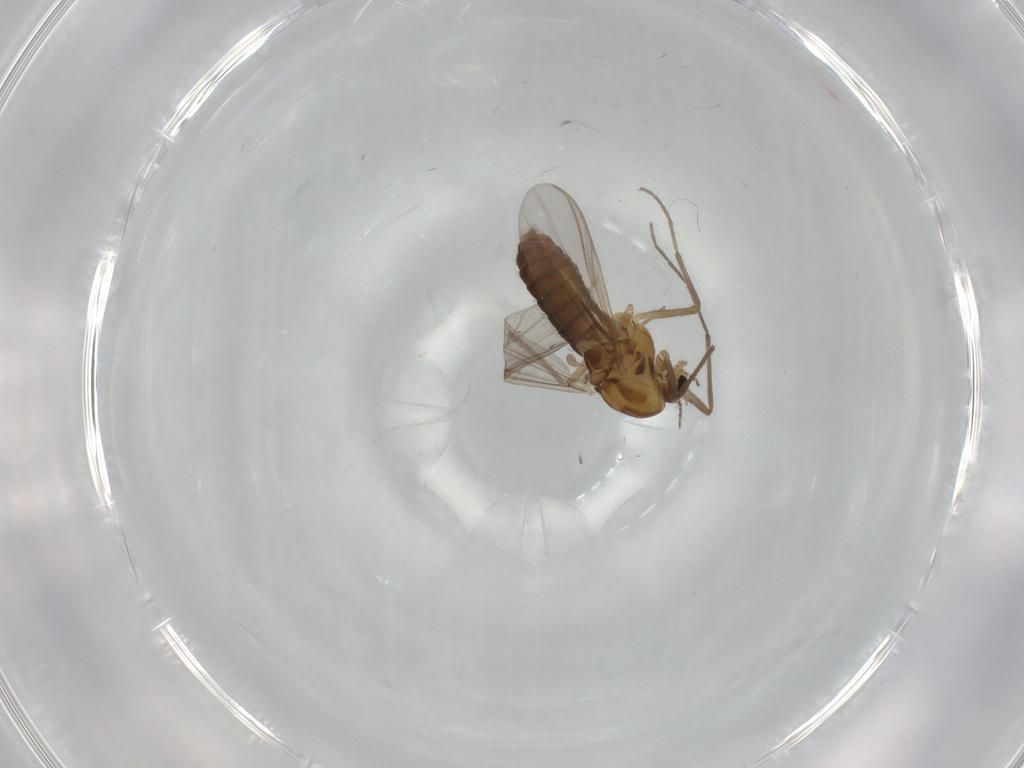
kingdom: Animalia
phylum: Arthropoda
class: Insecta
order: Diptera
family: Chironomidae
